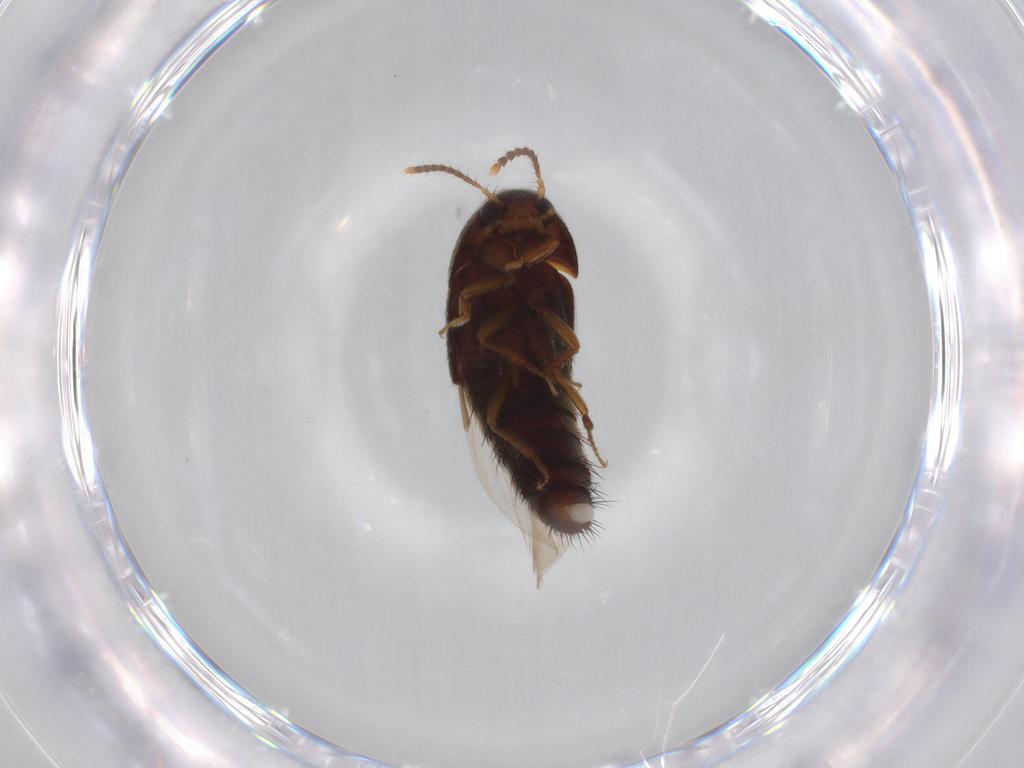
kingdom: Animalia
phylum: Arthropoda
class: Insecta
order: Coleoptera
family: Staphylinidae
